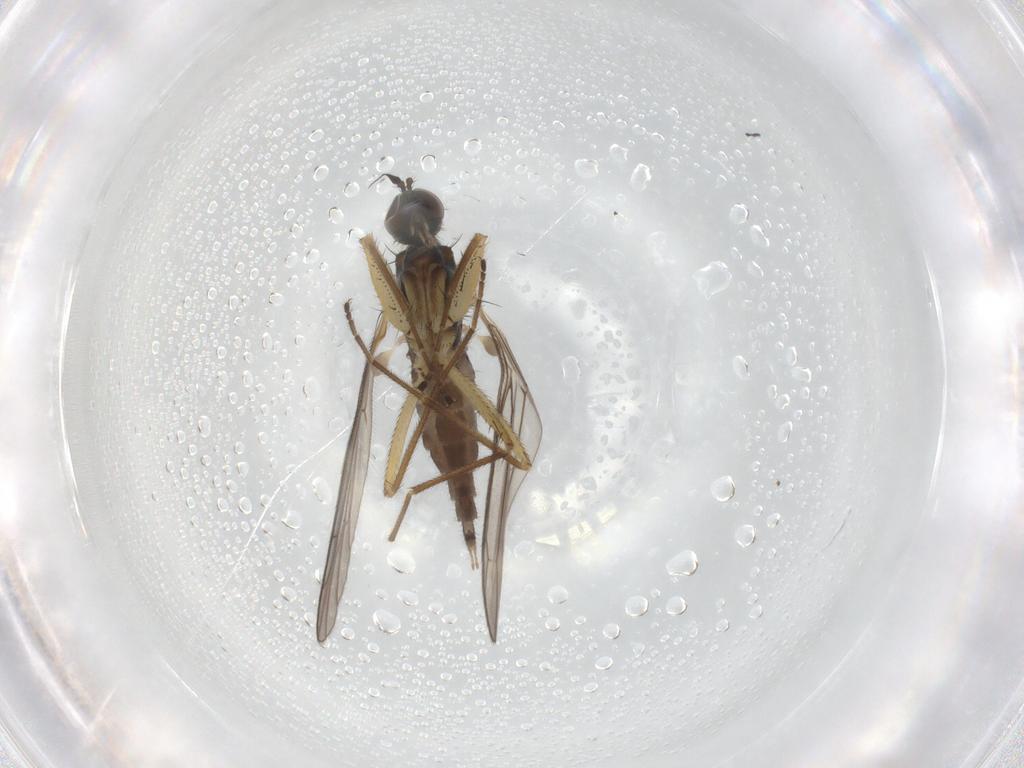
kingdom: Animalia
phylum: Arthropoda
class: Insecta
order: Diptera
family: Empididae
